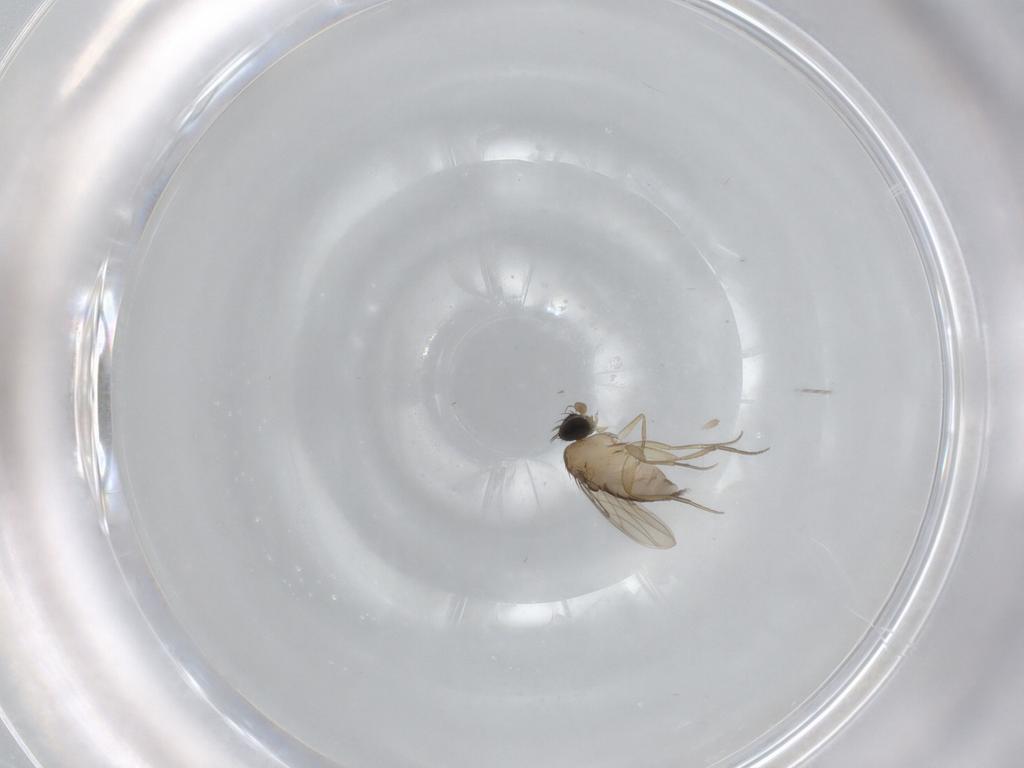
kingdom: Animalia
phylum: Arthropoda
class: Insecta
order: Diptera
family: Phoridae
